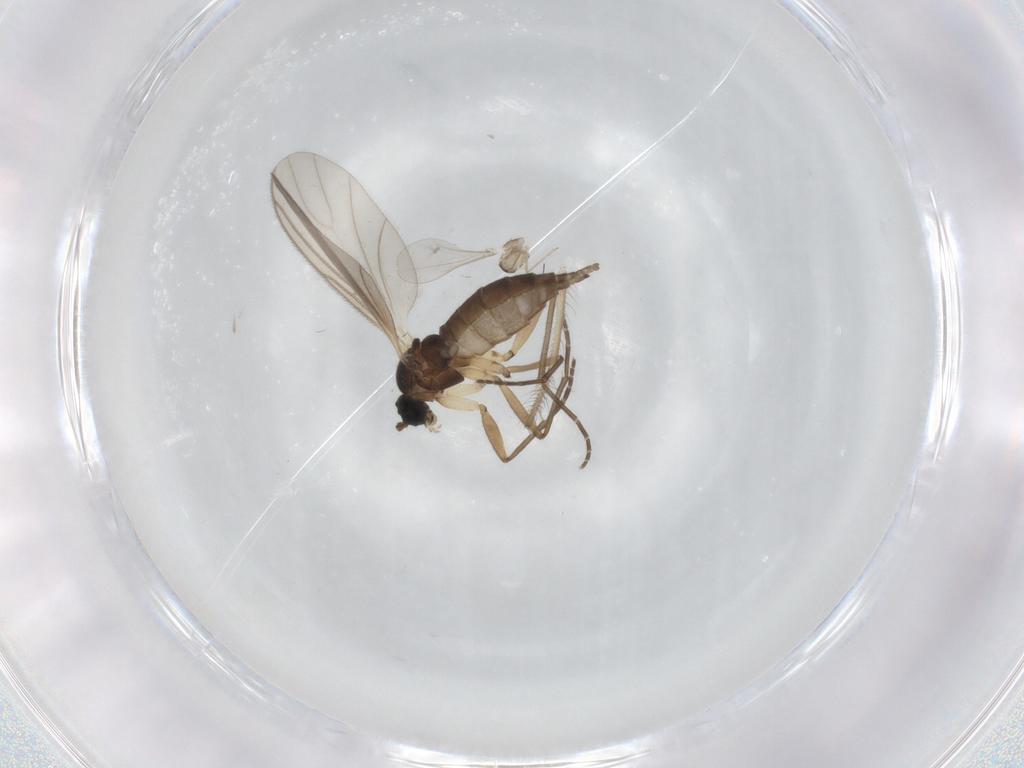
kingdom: Animalia
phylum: Arthropoda
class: Insecta
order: Diptera
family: Sciaridae
